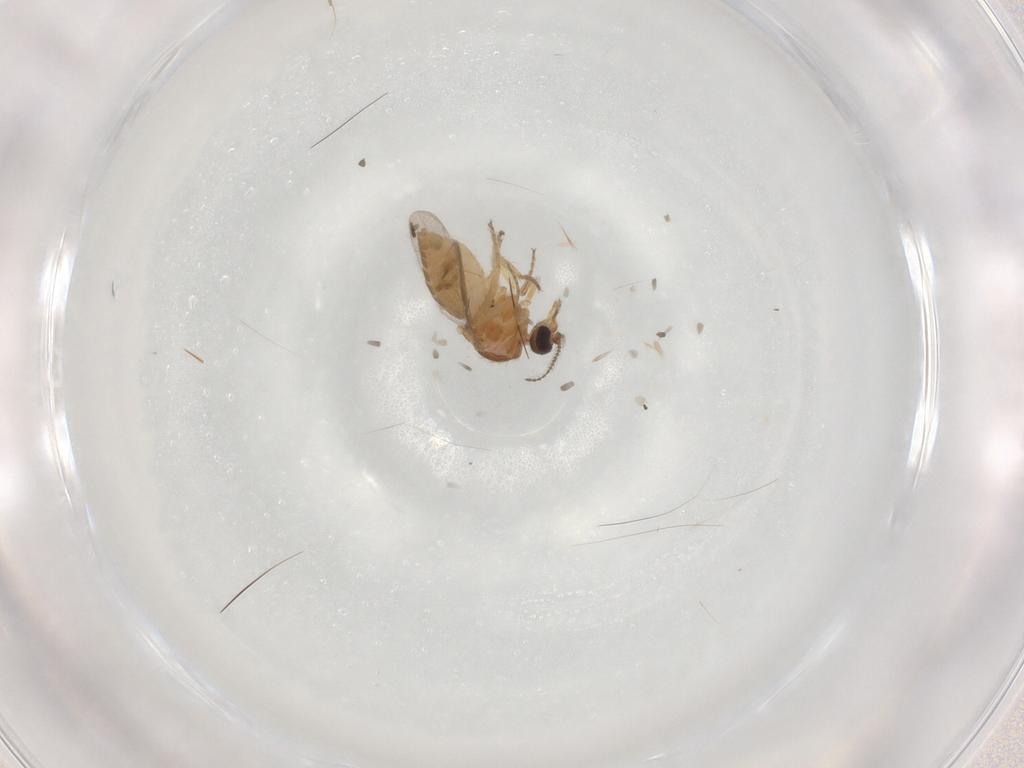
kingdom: Animalia
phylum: Arthropoda
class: Insecta
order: Diptera
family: Ceratopogonidae
